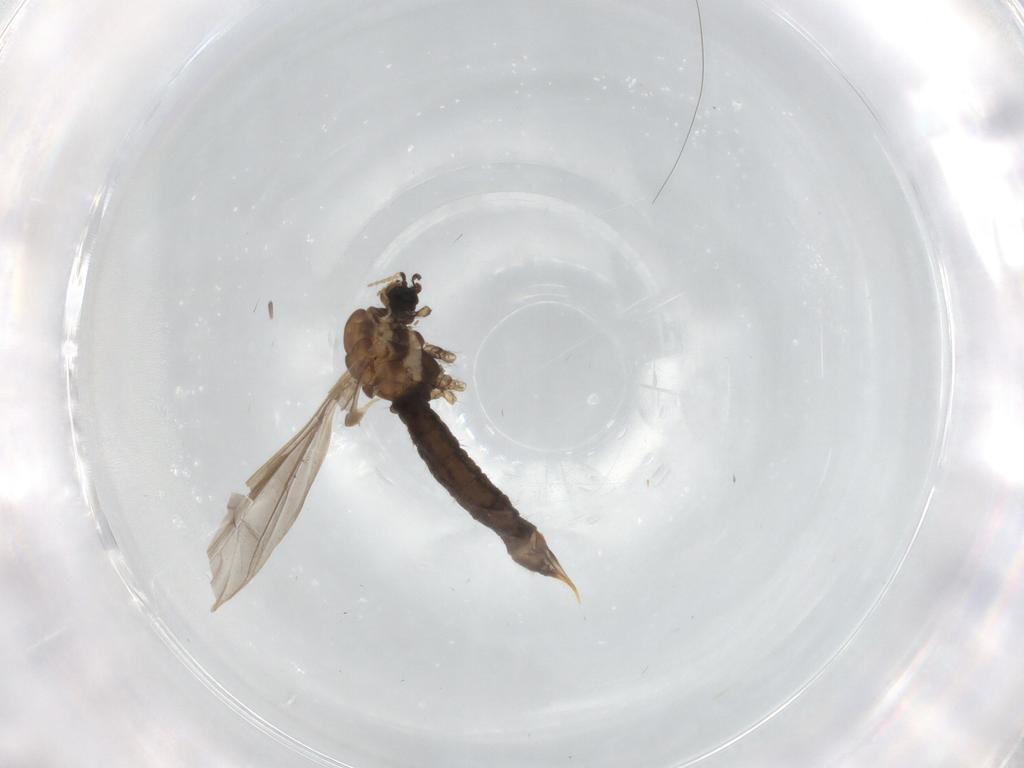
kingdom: Animalia
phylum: Arthropoda
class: Insecta
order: Diptera
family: Limoniidae
